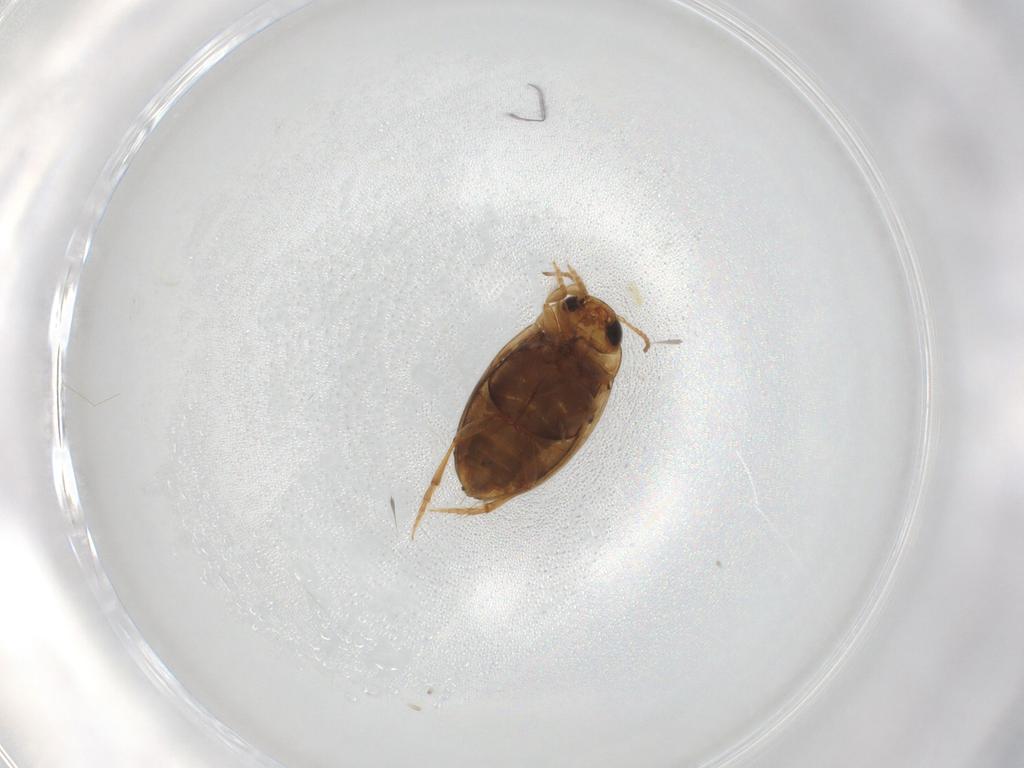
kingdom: Animalia
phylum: Arthropoda
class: Insecta
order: Coleoptera
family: Dytiscidae
